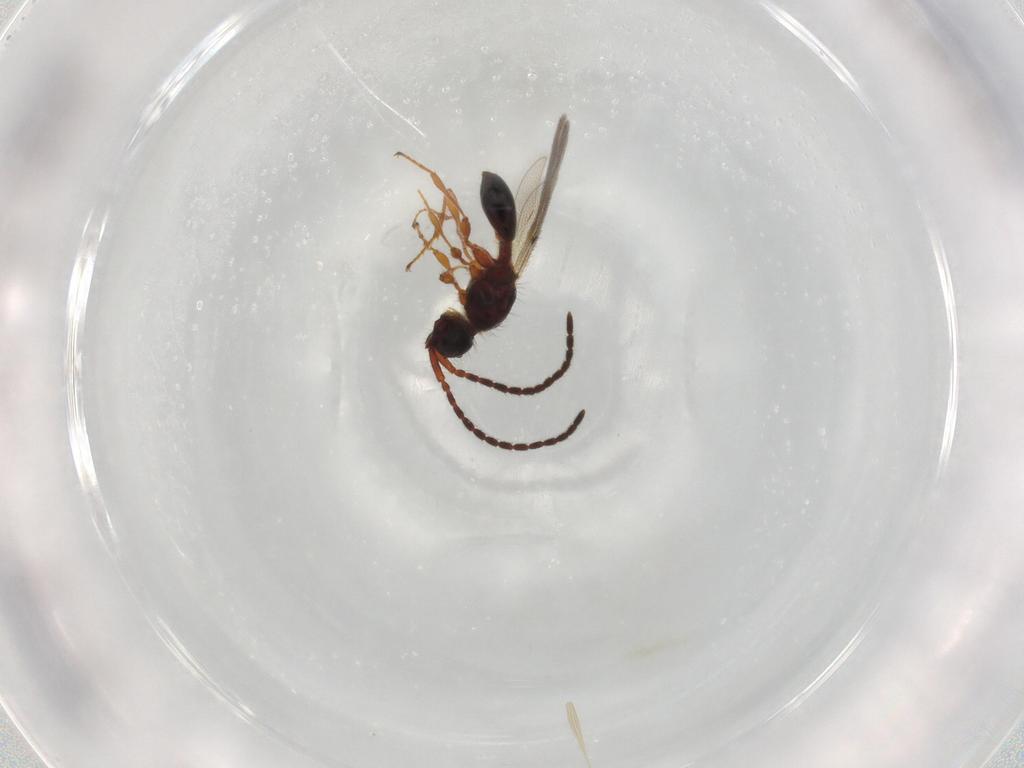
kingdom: Animalia
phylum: Arthropoda
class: Insecta
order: Hymenoptera
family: Diapriidae
